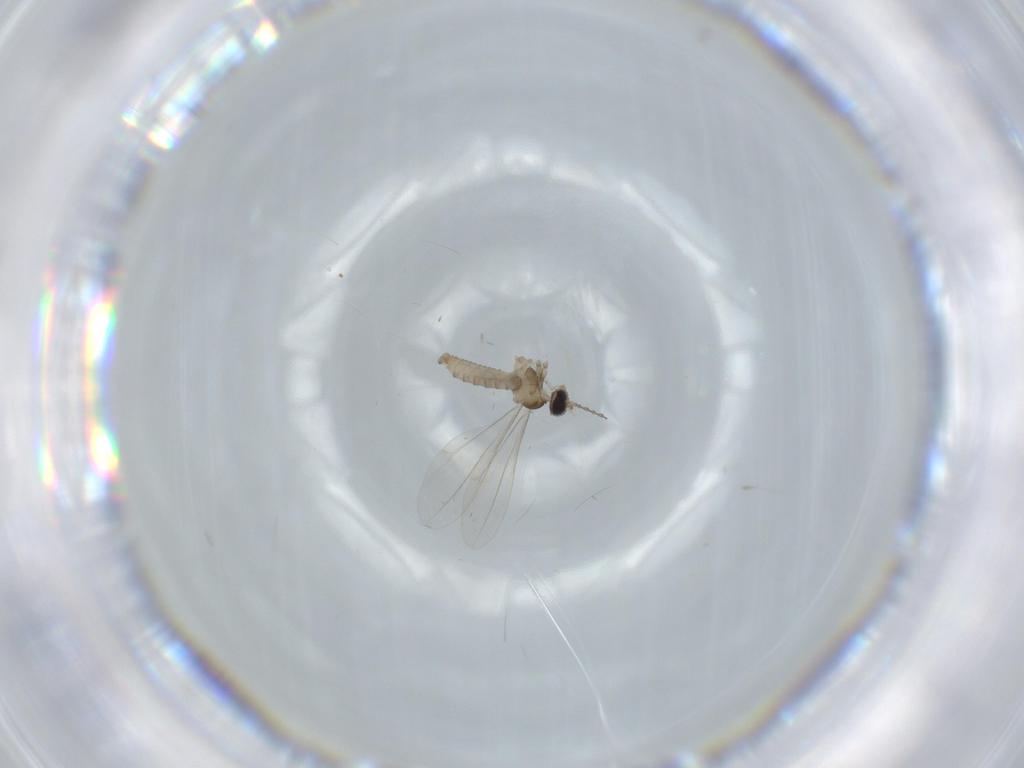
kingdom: Animalia
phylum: Arthropoda
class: Insecta
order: Diptera
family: Cecidomyiidae
